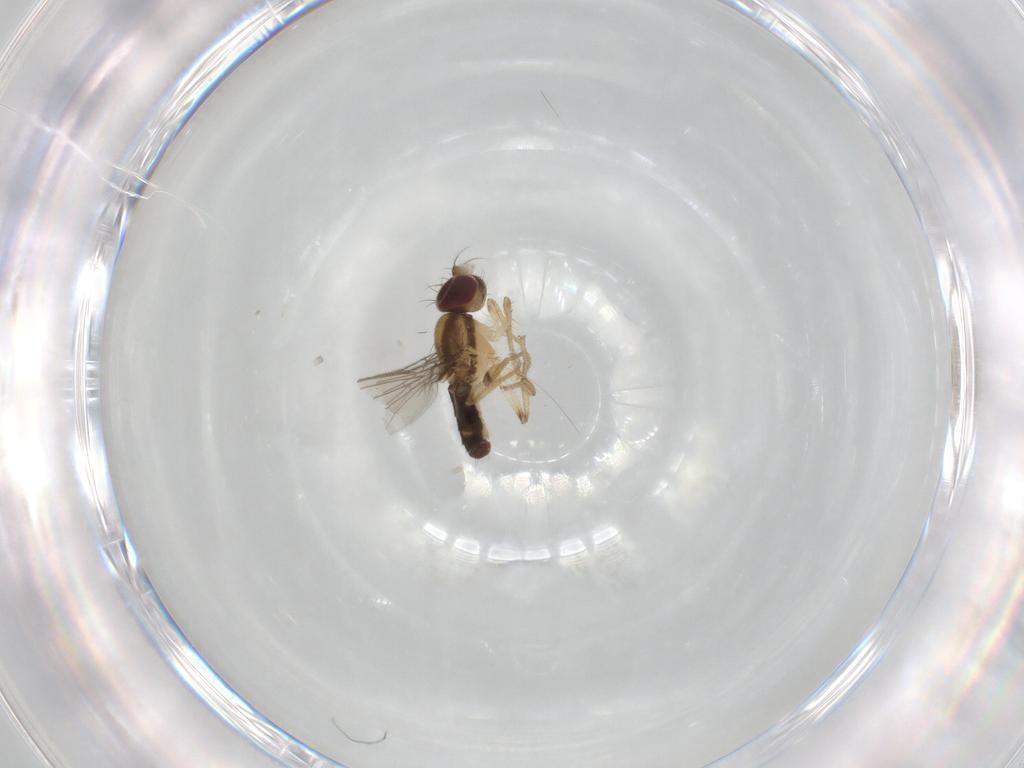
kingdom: Animalia
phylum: Arthropoda
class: Insecta
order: Diptera
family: Anthomyzidae
